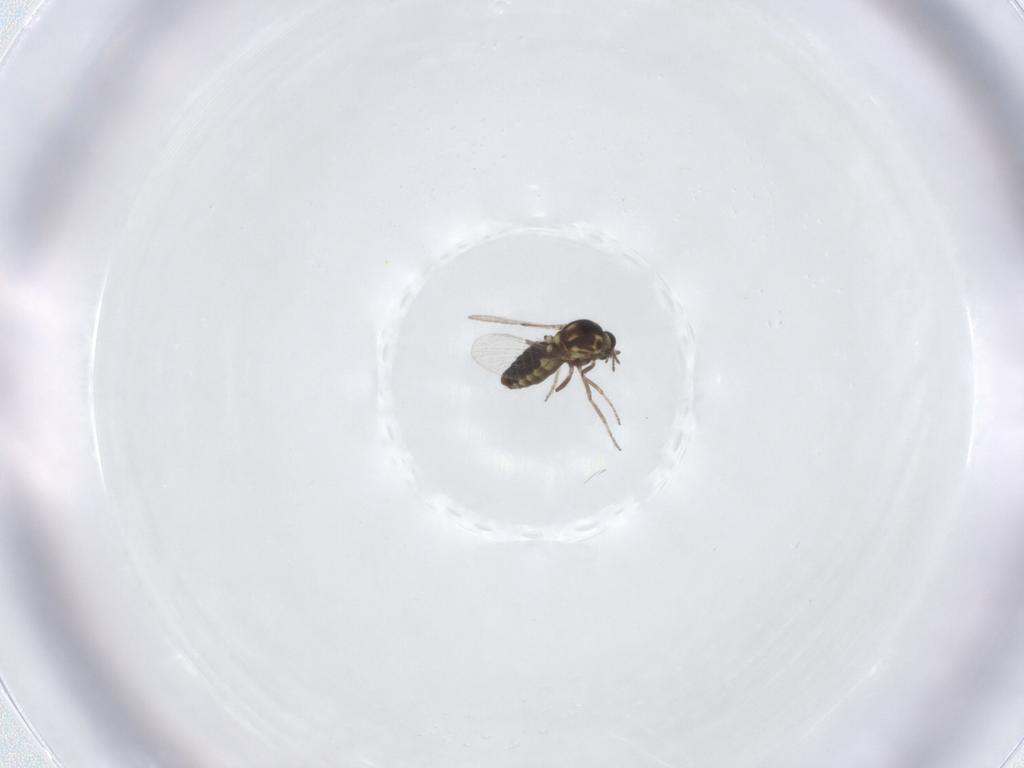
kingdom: Animalia
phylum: Arthropoda
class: Insecta
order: Diptera
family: Ceratopogonidae
